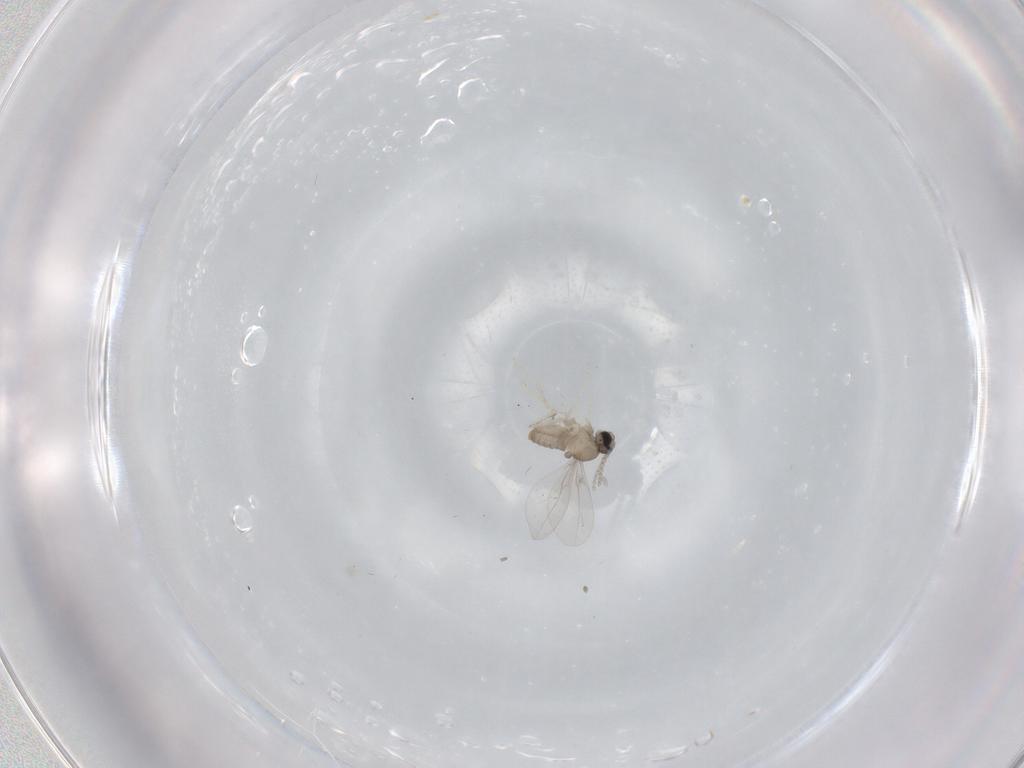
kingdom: Animalia
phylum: Arthropoda
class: Insecta
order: Diptera
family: Cecidomyiidae
